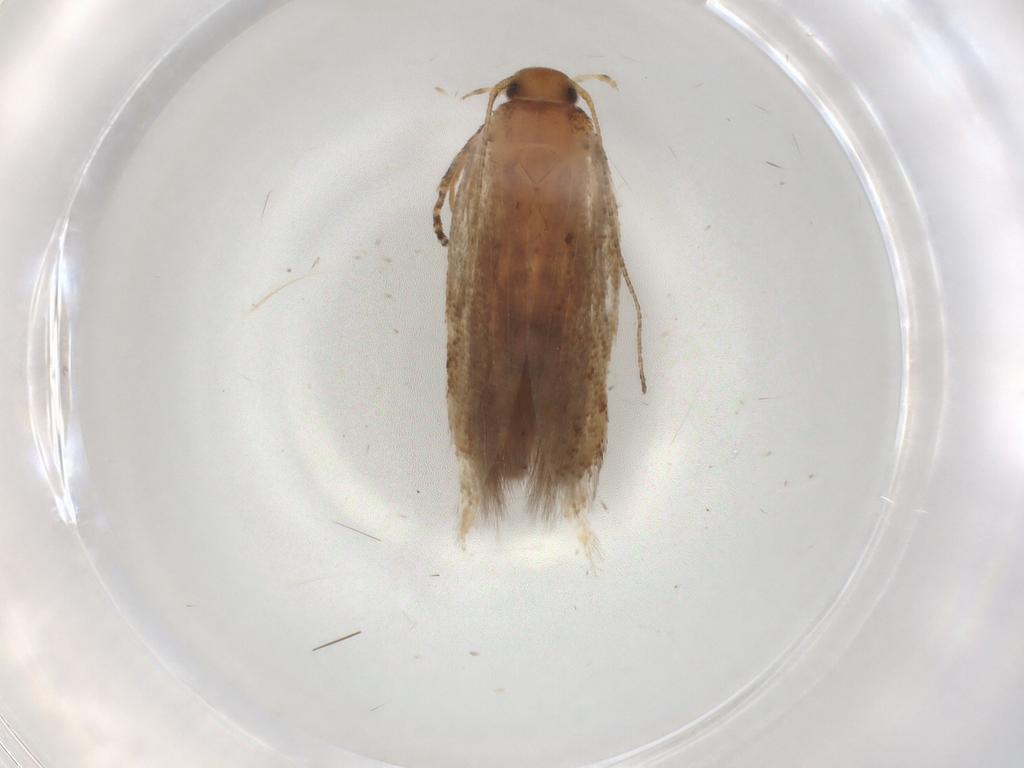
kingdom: Animalia
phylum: Arthropoda
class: Insecta
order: Lepidoptera
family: Gelechiidae
